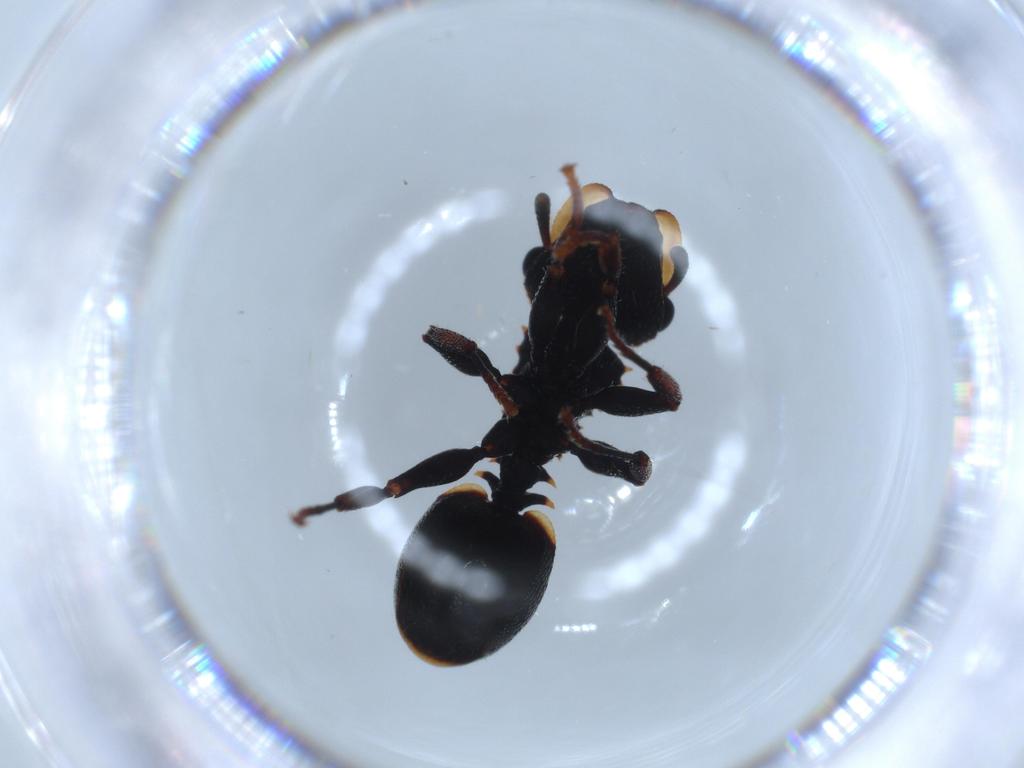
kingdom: Animalia
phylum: Arthropoda
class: Insecta
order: Hymenoptera
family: Formicidae
